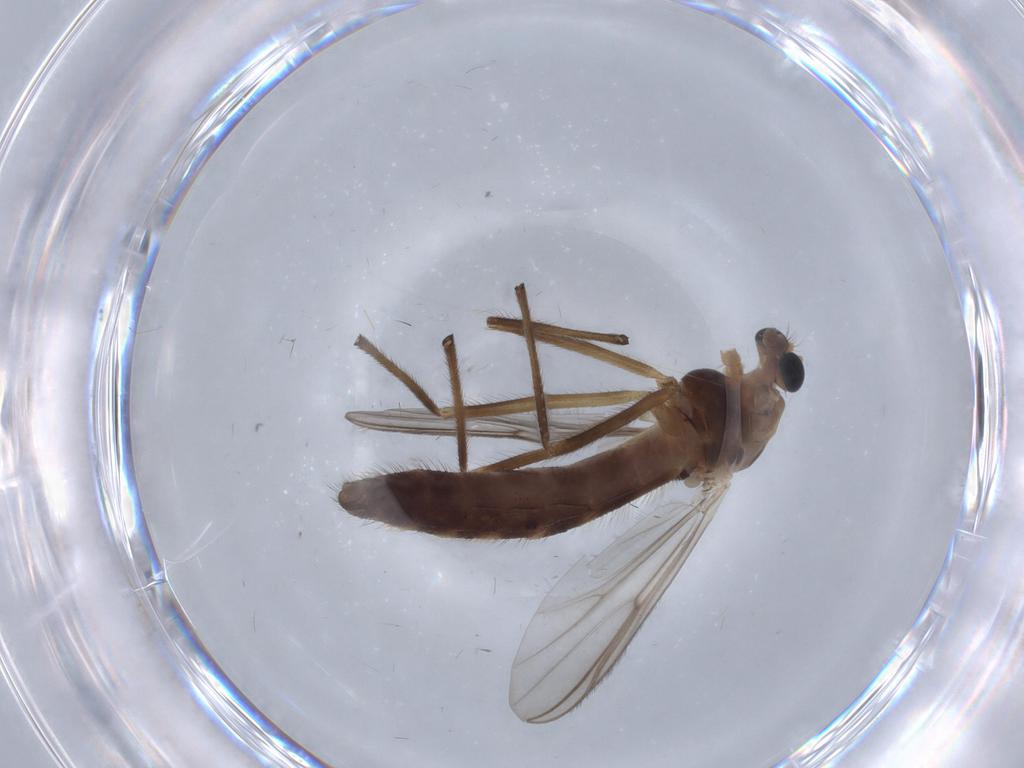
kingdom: Animalia
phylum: Arthropoda
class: Insecta
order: Diptera
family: Chironomidae
